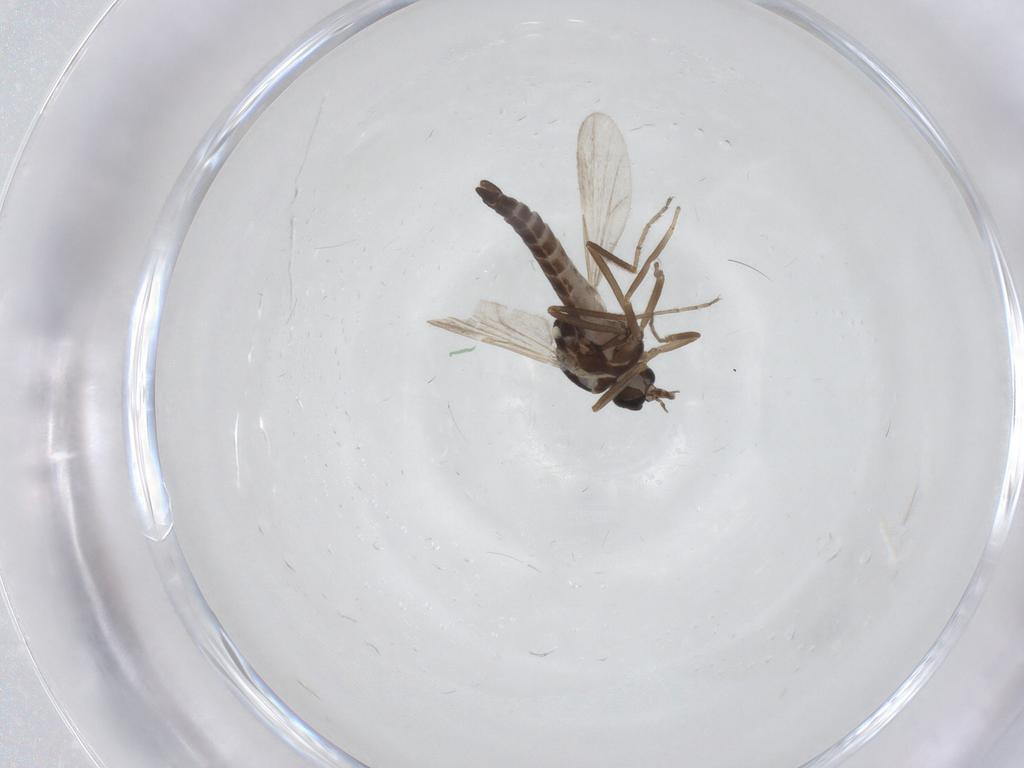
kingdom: Animalia
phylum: Arthropoda
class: Insecta
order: Diptera
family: Ceratopogonidae
